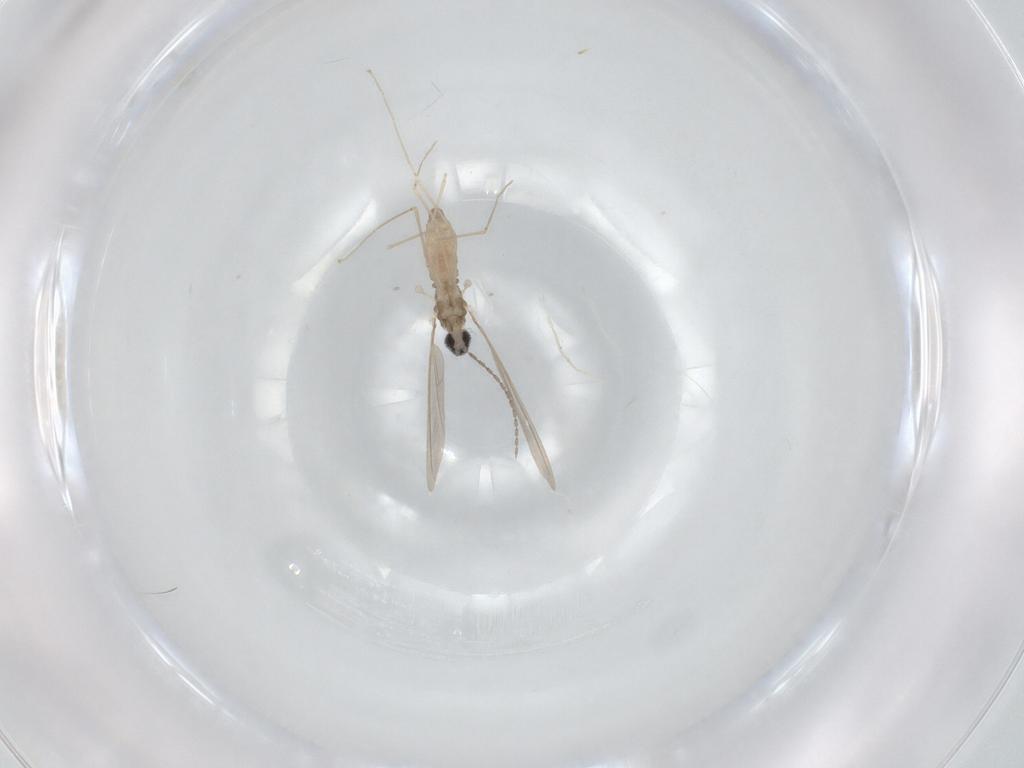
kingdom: Animalia
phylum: Arthropoda
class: Insecta
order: Diptera
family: Cecidomyiidae
